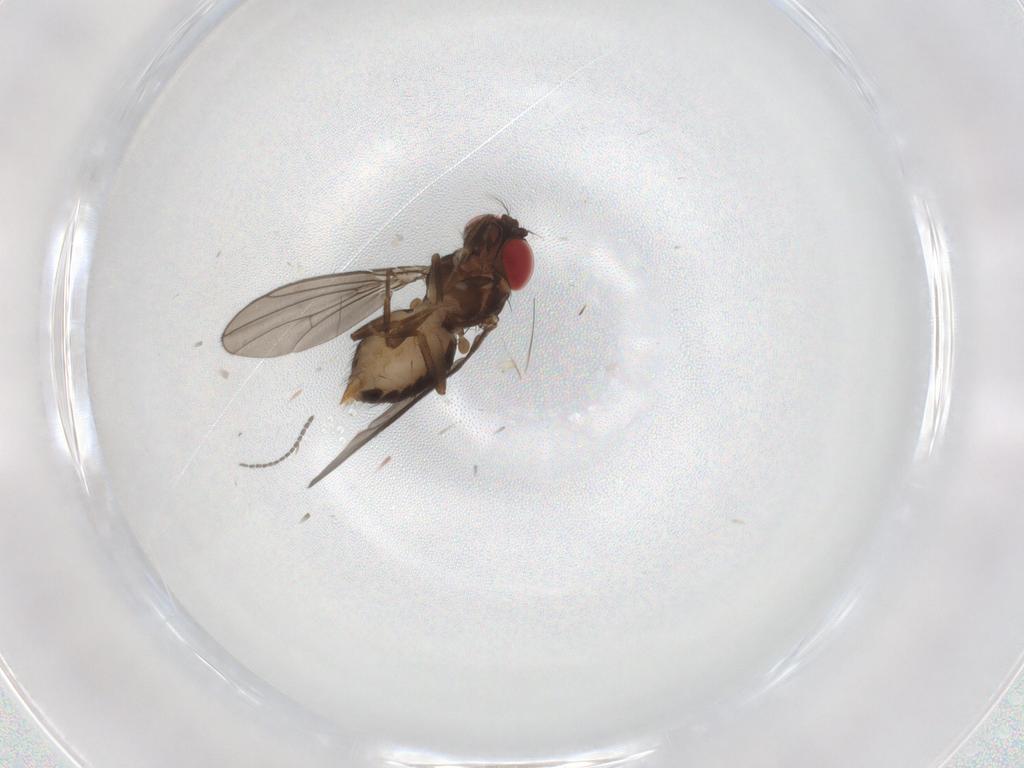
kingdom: Animalia
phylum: Arthropoda
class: Insecta
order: Diptera
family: Drosophilidae
